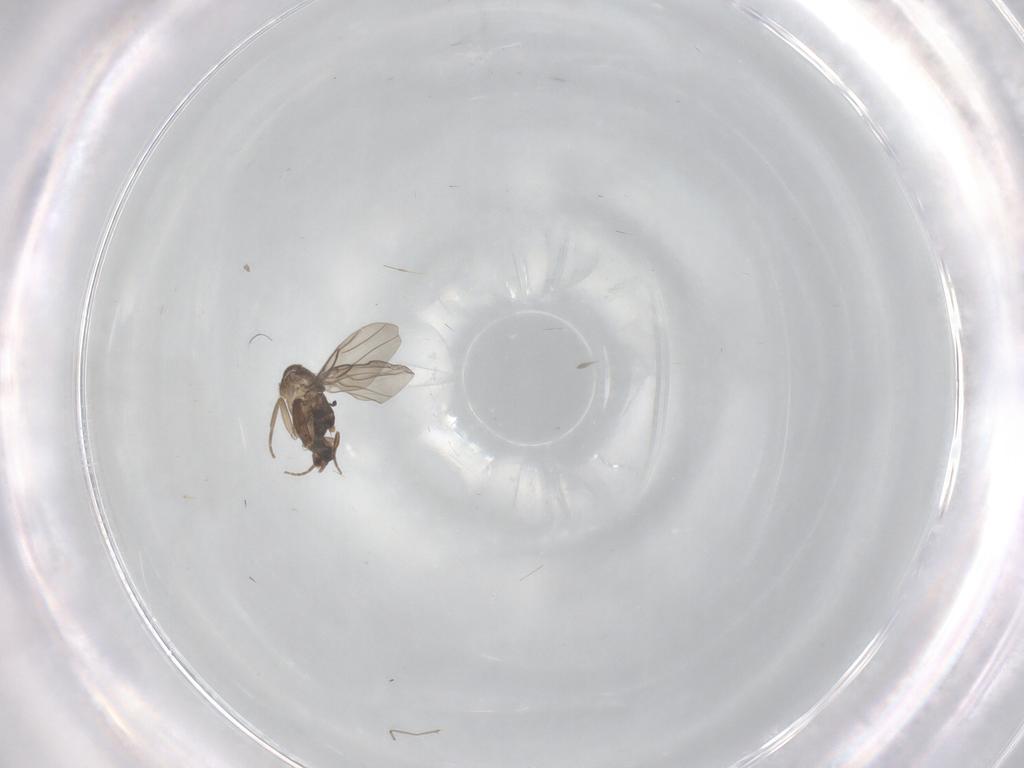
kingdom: Animalia
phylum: Arthropoda
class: Insecta
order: Diptera
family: Phoridae
